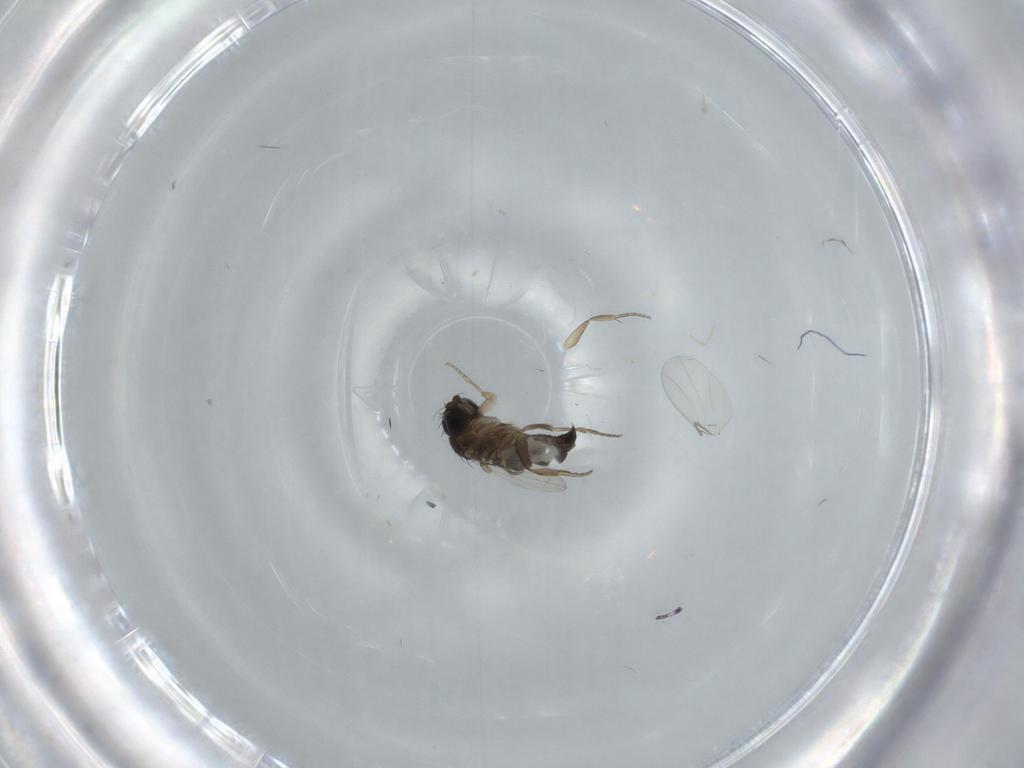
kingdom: Animalia
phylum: Arthropoda
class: Insecta
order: Diptera
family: Phoridae
